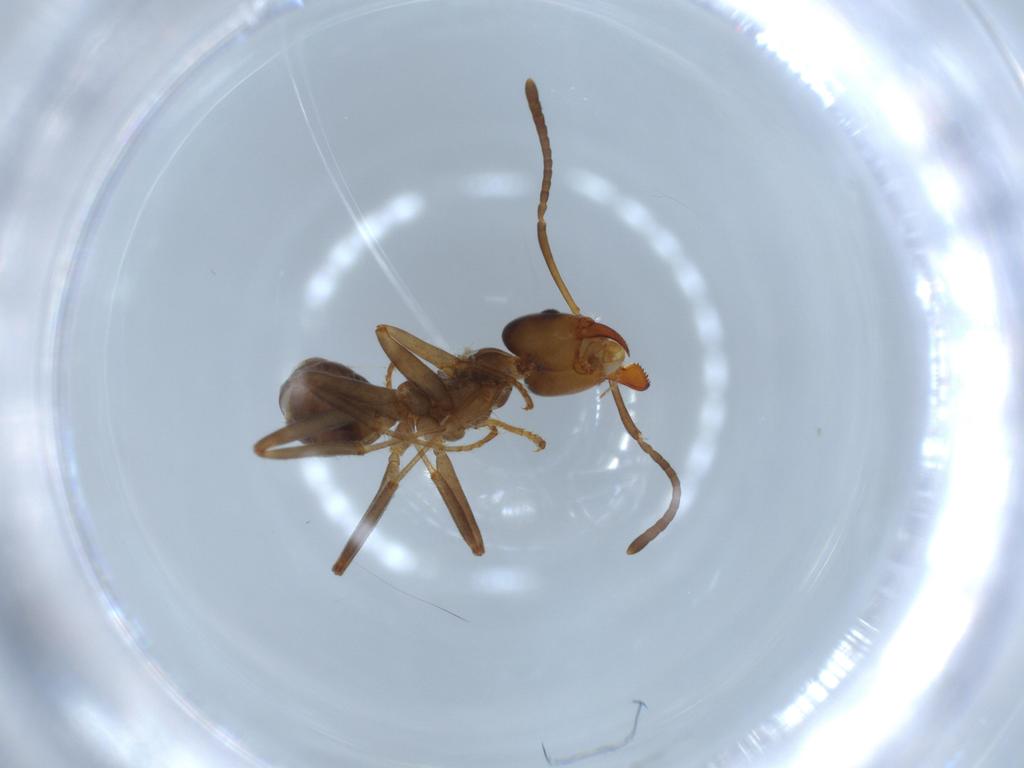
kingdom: Animalia
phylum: Arthropoda
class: Insecta
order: Hymenoptera
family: Formicidae
